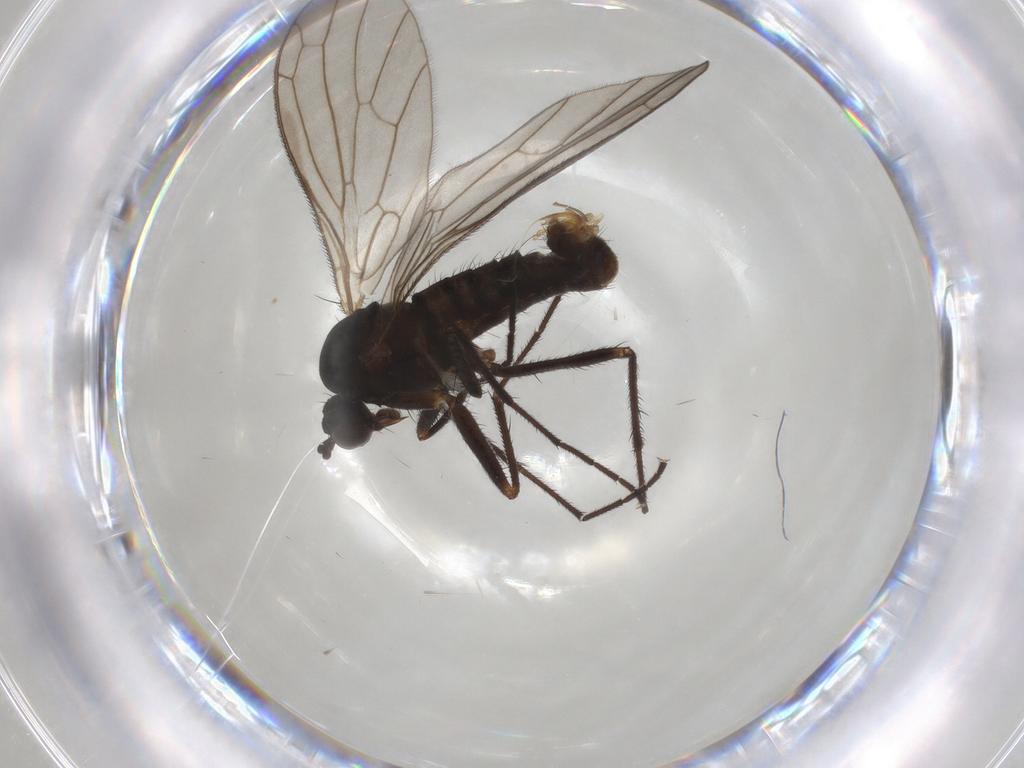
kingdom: Animalia
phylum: Arthropoda
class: Insecta
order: Diptera
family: Empididae
